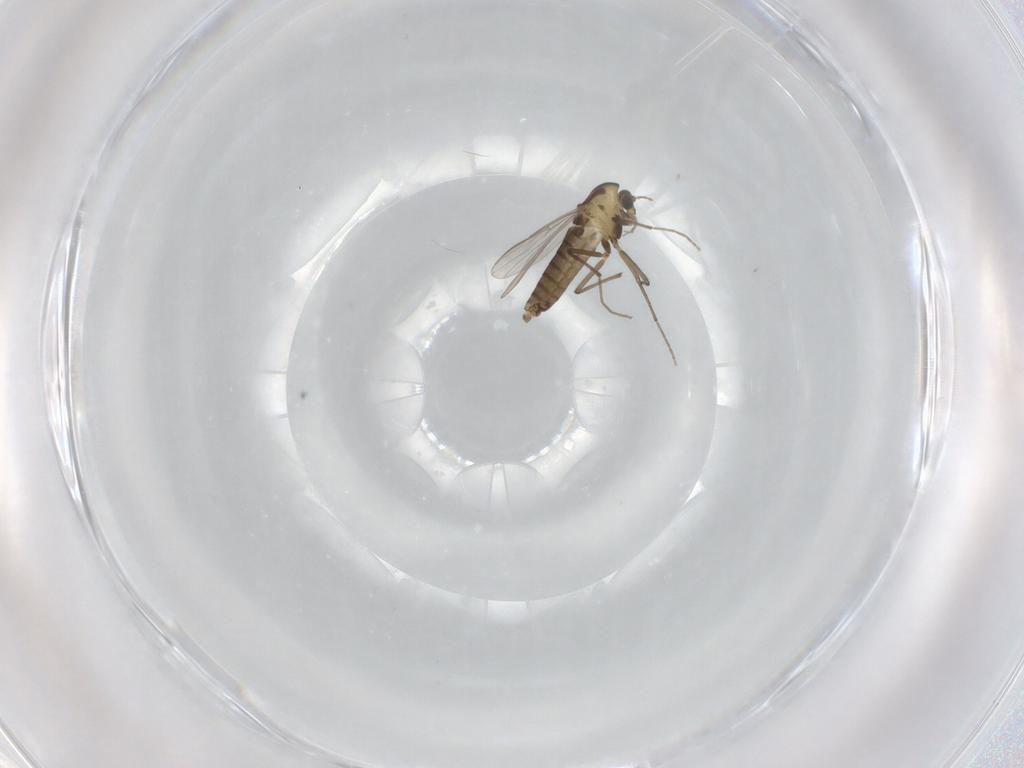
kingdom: Animalia
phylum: Arthropoda
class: Insecta
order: Diptera
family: Chironomidae
